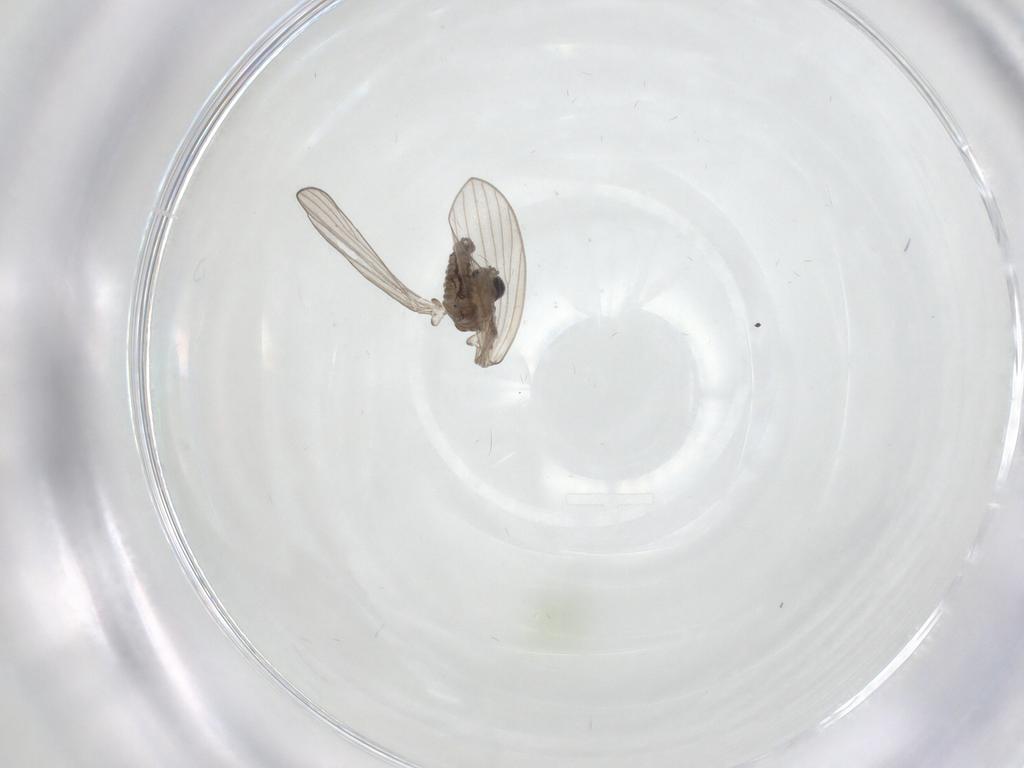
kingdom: Animalia
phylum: Arthropoda
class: Insecta
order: Diptera
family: Psychodidae
